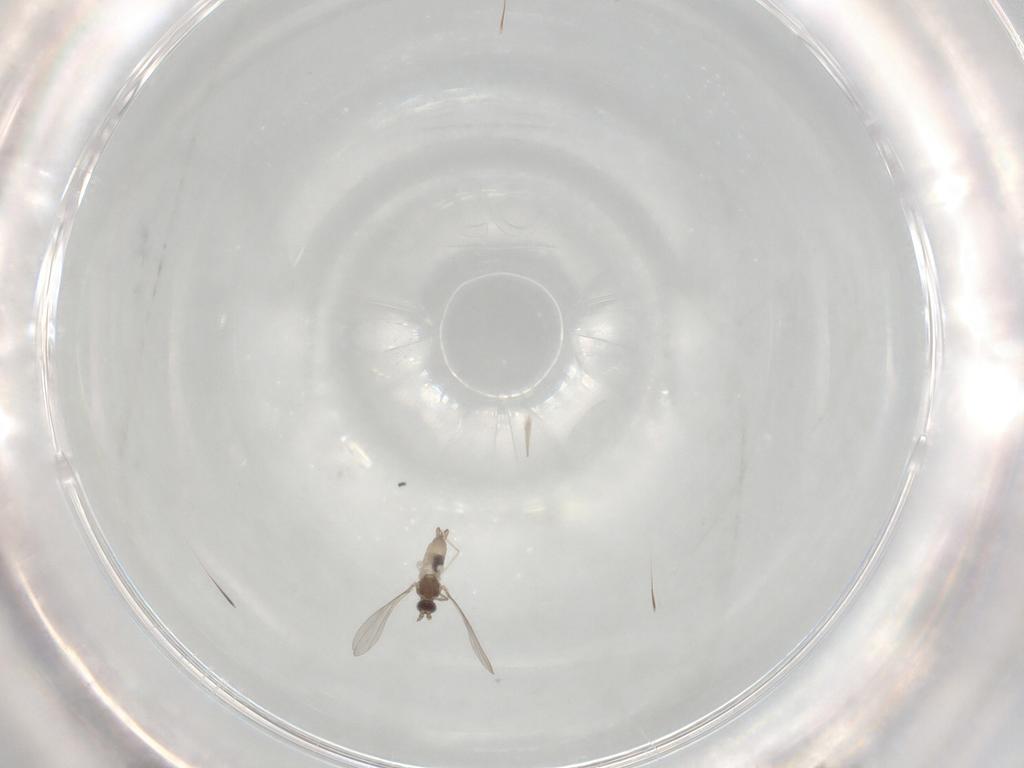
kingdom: Animalia
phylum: Arthropoda
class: Insecta
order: Diptera
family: Cecidomyiidae
